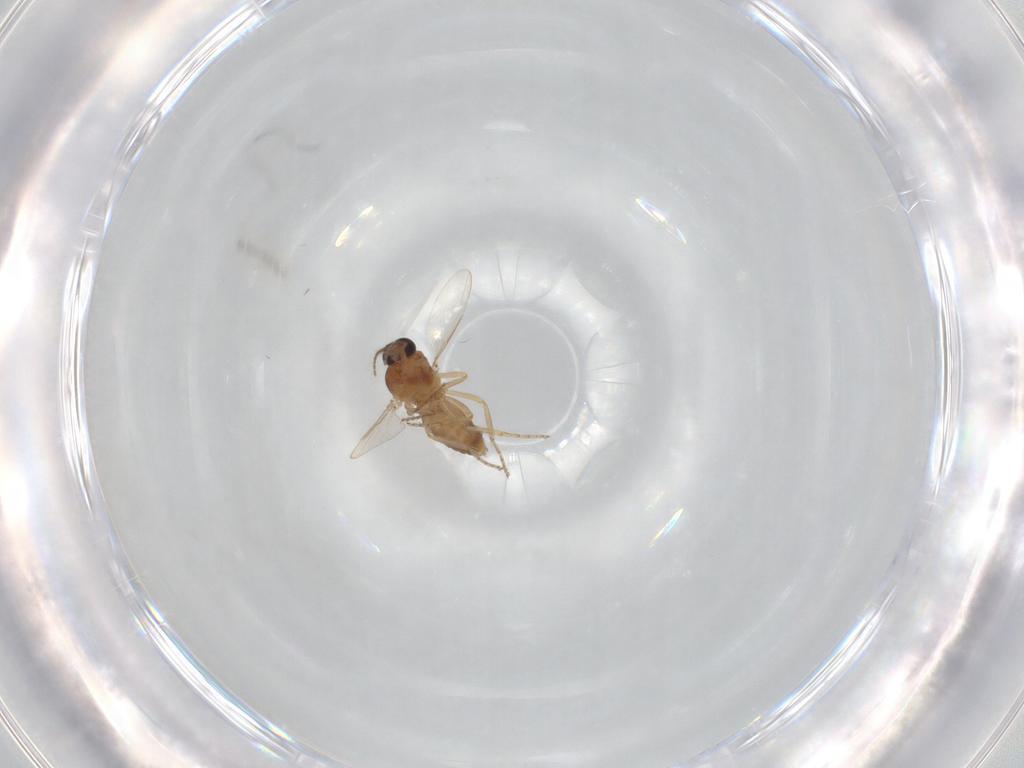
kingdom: Animalia
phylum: Arthropoda
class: Insecta
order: Diptera
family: Ceratopogonidae
